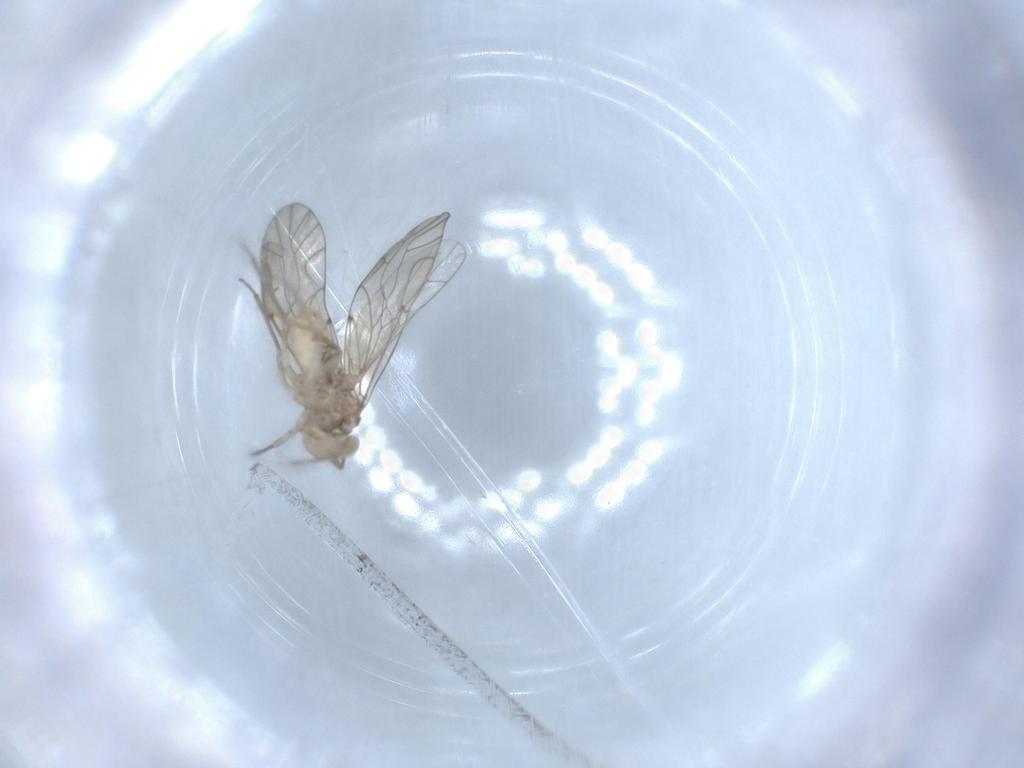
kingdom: Animalia
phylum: Arthropoda
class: Insecta
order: Psocodea
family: Lachesillidae
